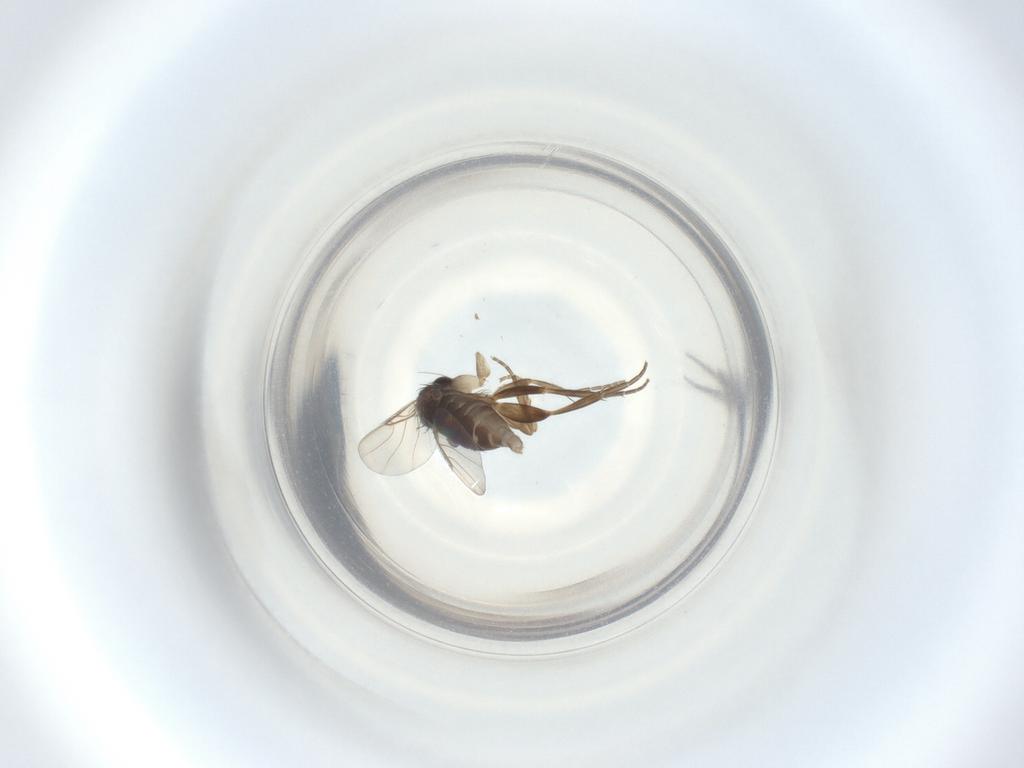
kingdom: Animalia
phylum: Arthropoda
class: Insecta
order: Diptera
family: Phoridae
